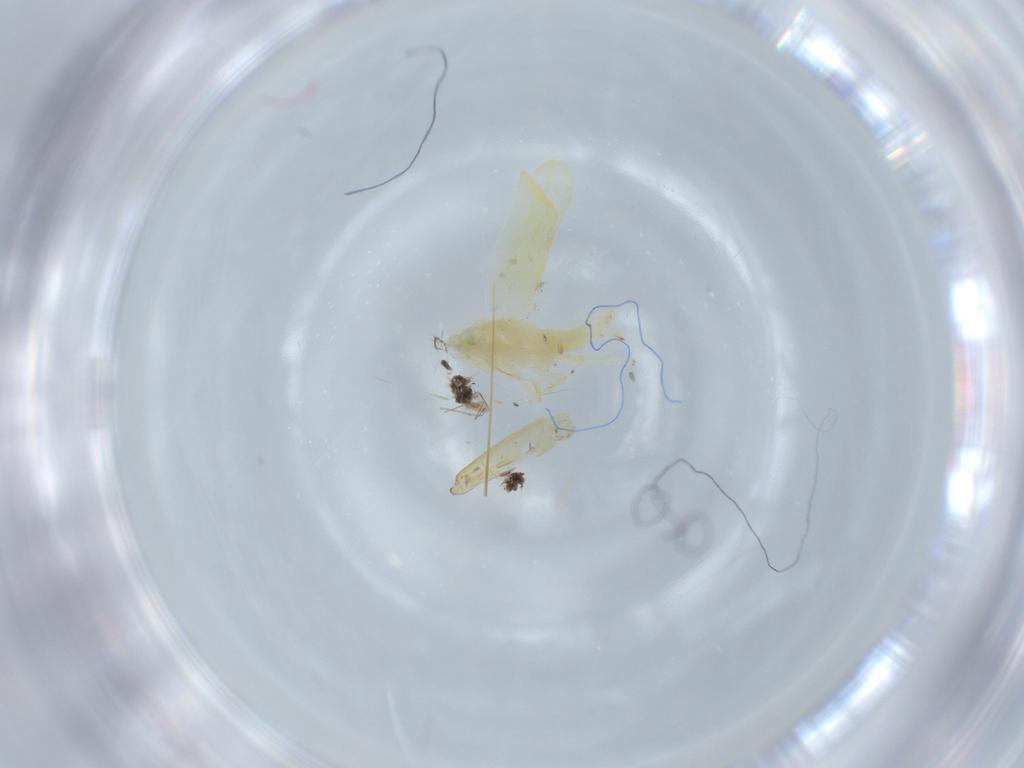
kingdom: Animalia
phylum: Arthropoda
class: Insecta
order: Hemiptera
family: Cicadellidae
